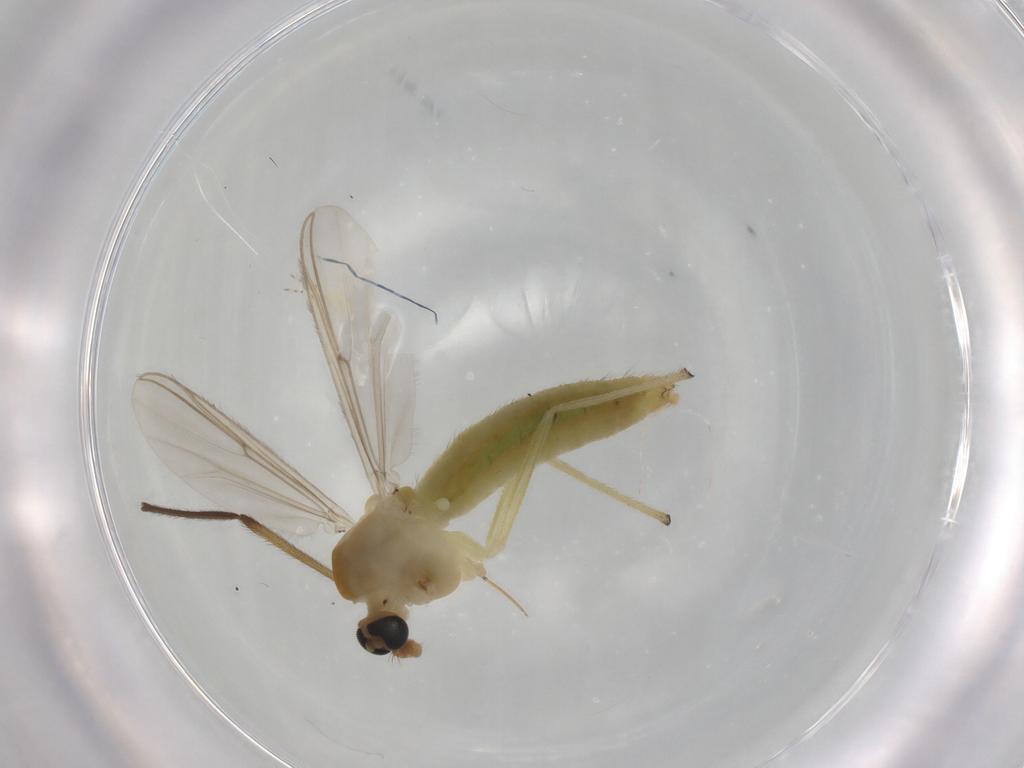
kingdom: Animalia
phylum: Arthropoda
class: Insecta
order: Diptera
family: Chironomidae
